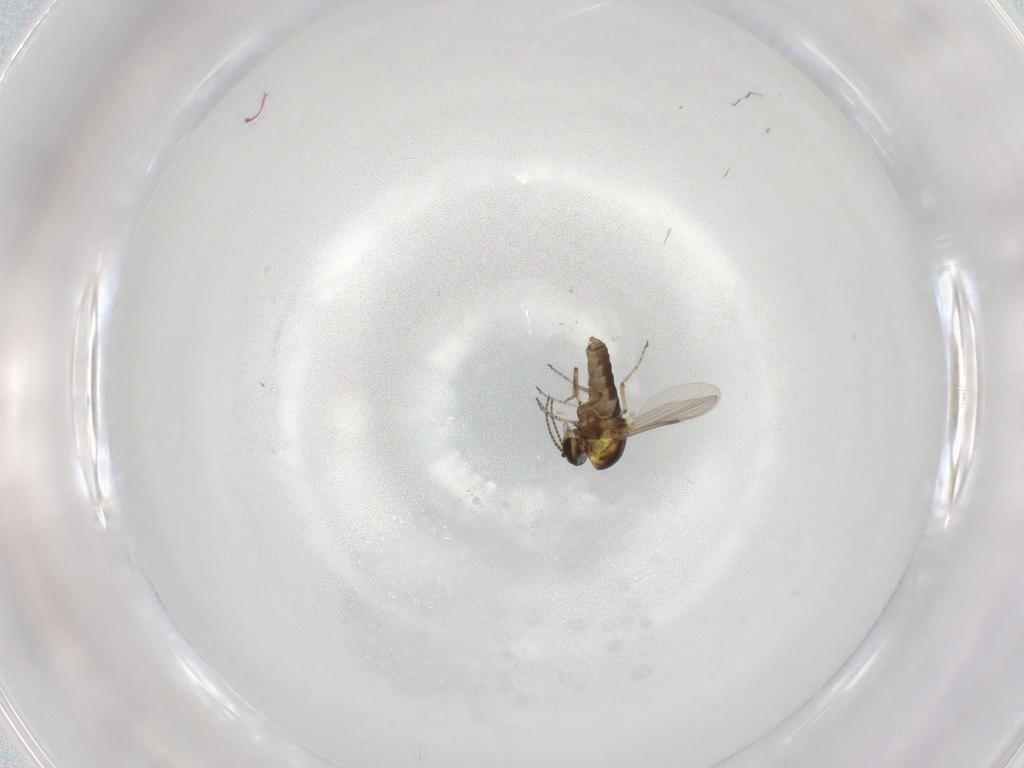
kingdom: Animalia
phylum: Arthropoda
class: Insecta
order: Diptera
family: Ceratopogonidae
